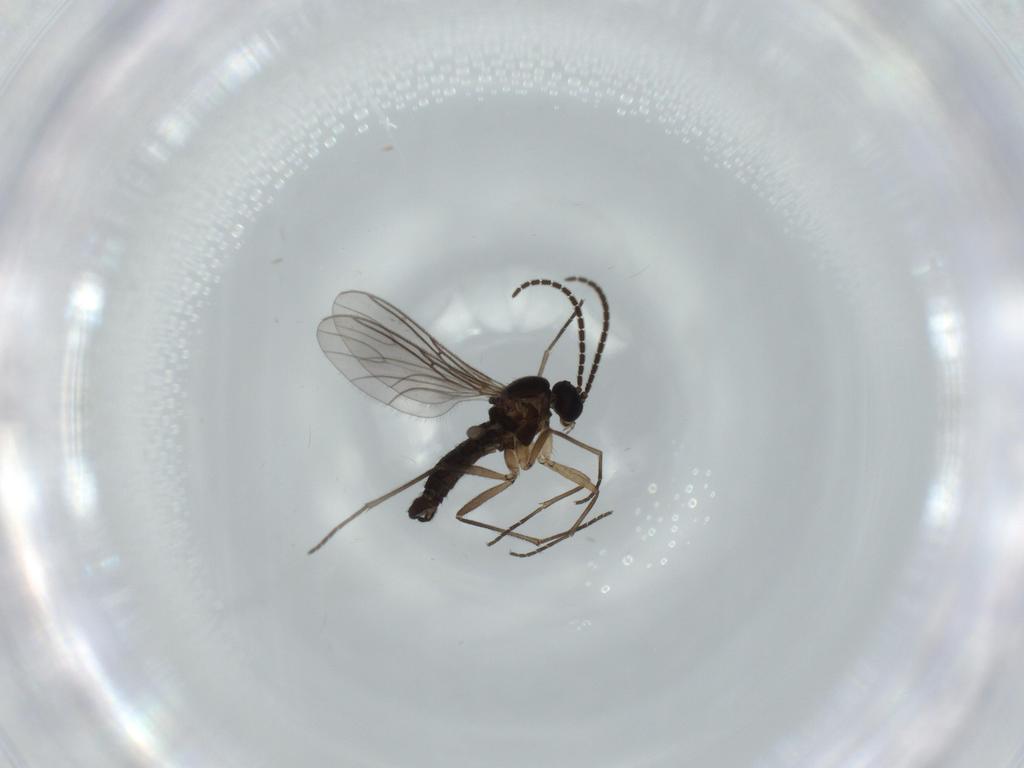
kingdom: Animalia
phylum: Arthropoda
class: Insecta
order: Diptera
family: Sciaridae
